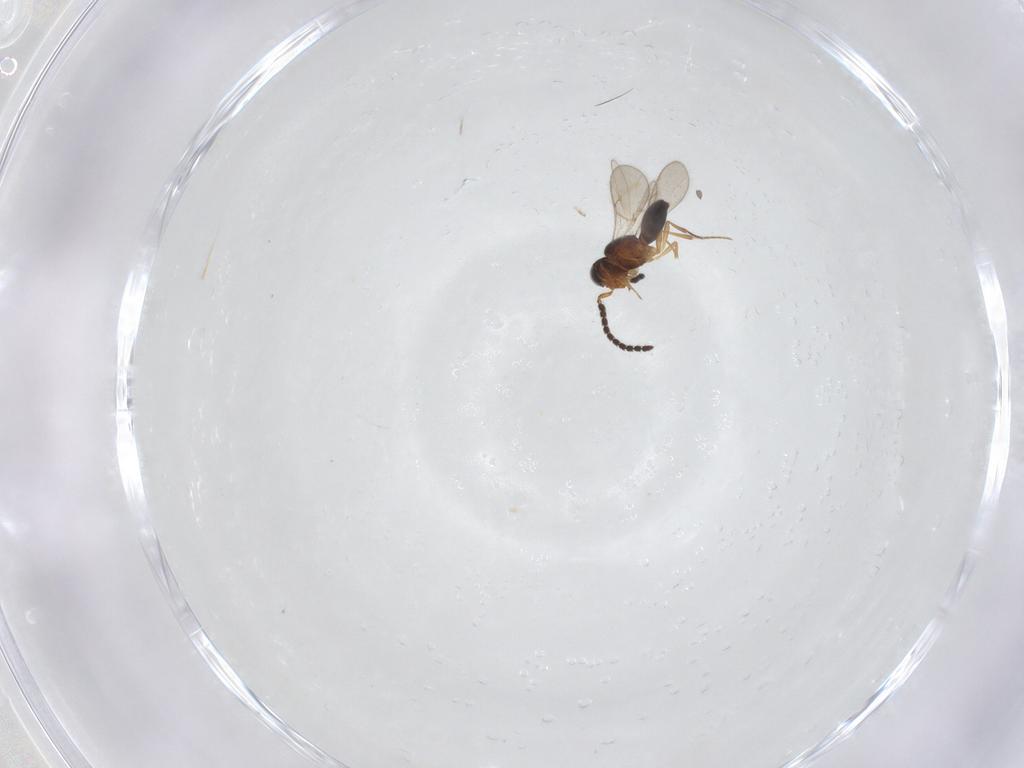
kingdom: Animalia
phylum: Arthropoda
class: Insecta
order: Hymenoptera
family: Scelionidae
